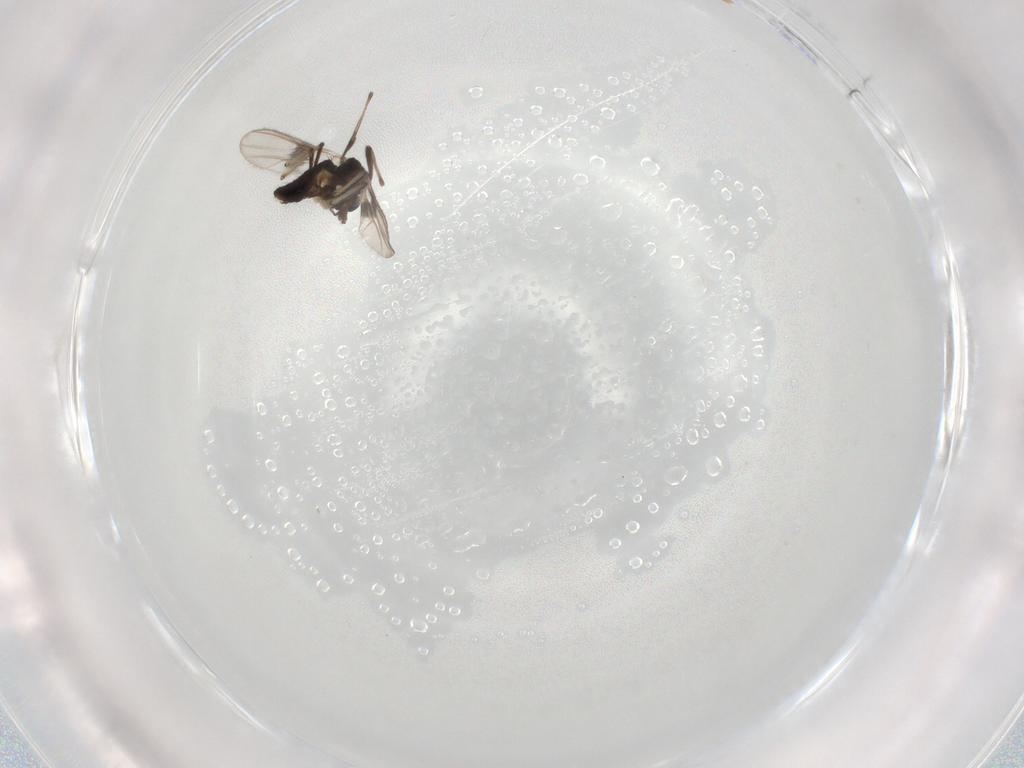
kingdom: Animalia
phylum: Arthropoda
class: Insecta
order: Diptera
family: Chironomidae
